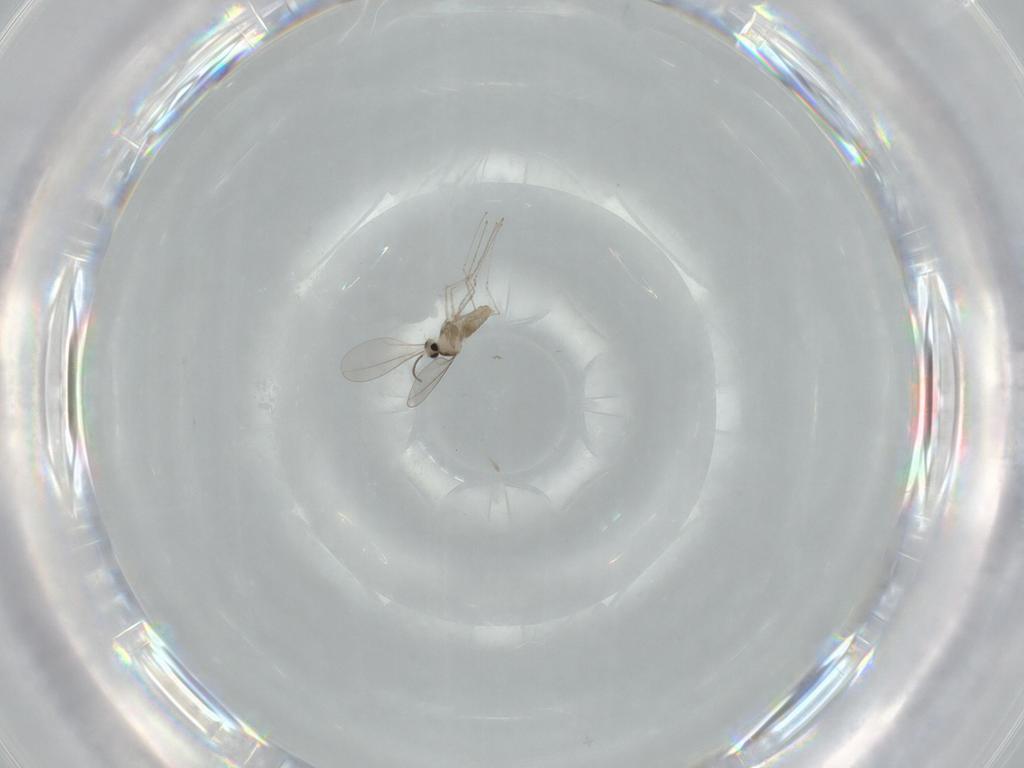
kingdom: Animalia
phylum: Arthropoda
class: Insecta
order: Diptera
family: Cecidomyiidae
